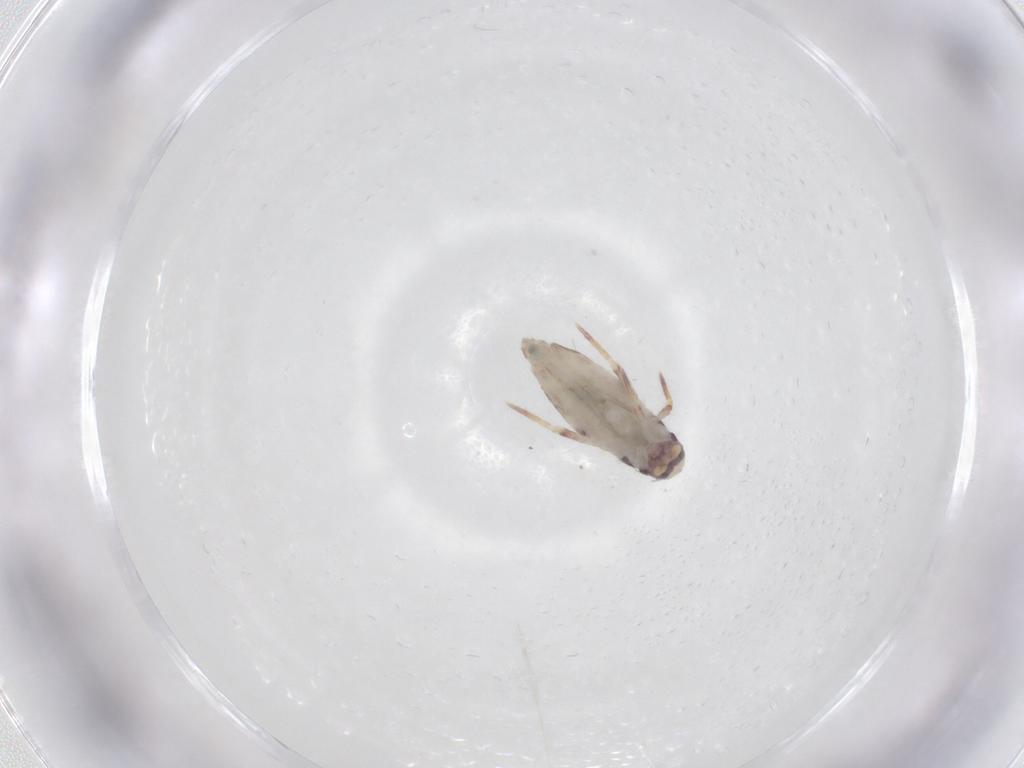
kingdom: Animalia
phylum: Arthropoda
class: Collembola
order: Entomobryomorpha
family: Entomobryidae
